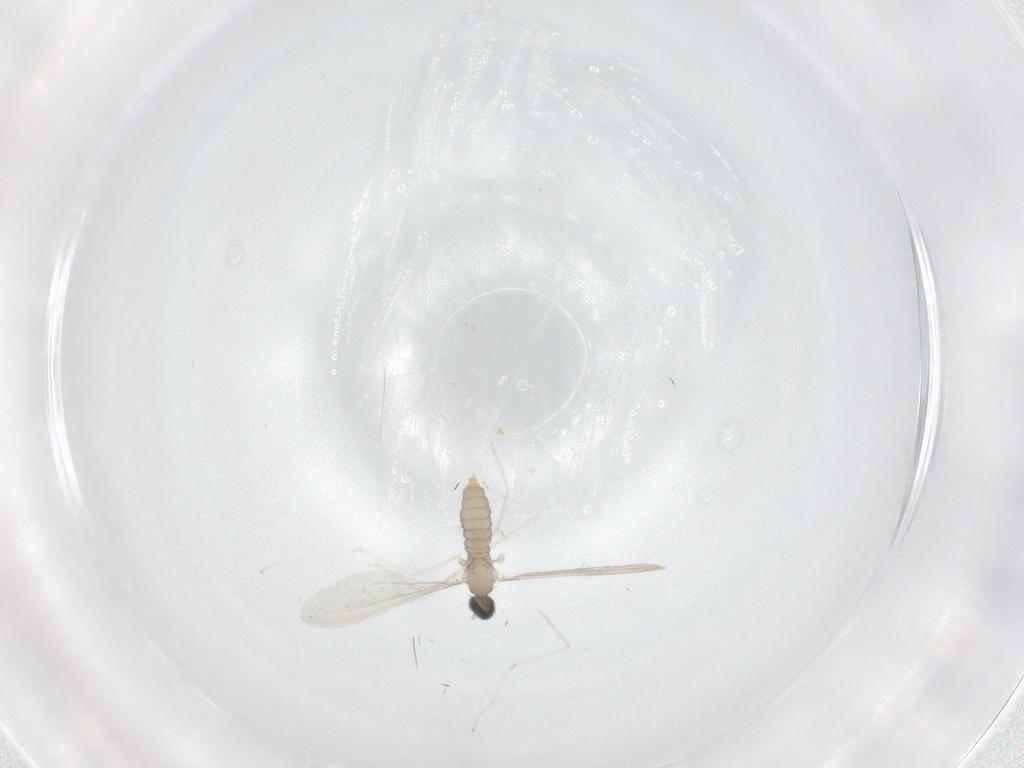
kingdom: Animalia
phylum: Arthropoda
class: Insecta
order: Diptera
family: Cecidomyiidae
